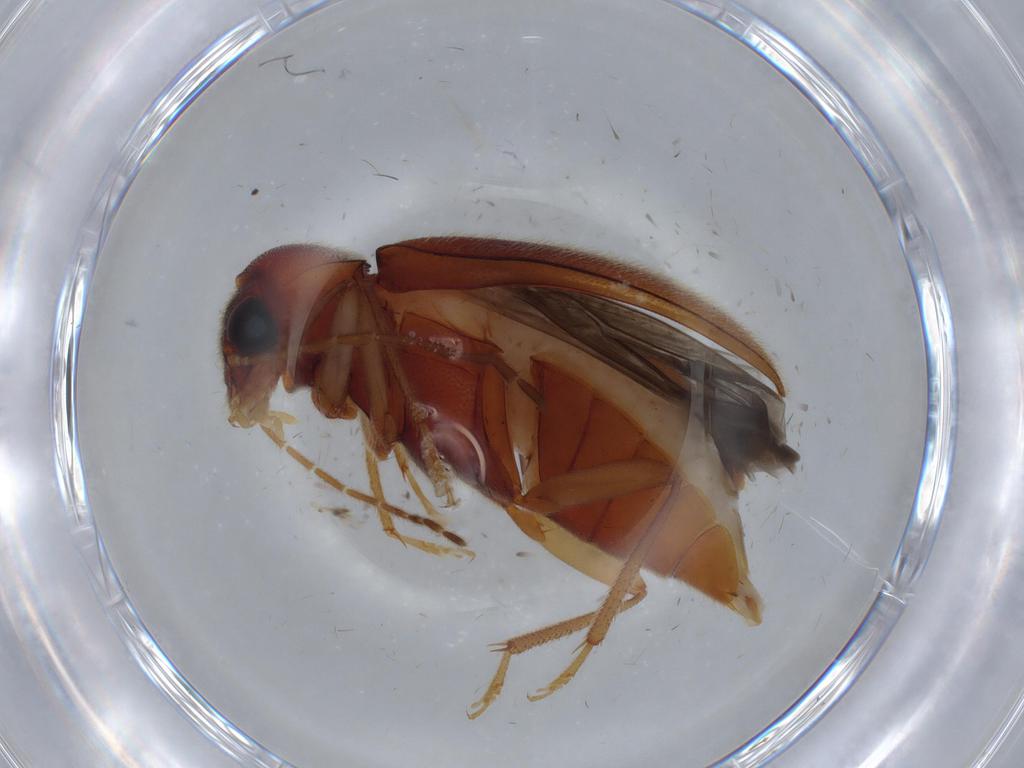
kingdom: Animalia
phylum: Arthropoda
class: Insecta
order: Coleoptera
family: Ptilodactylidae
